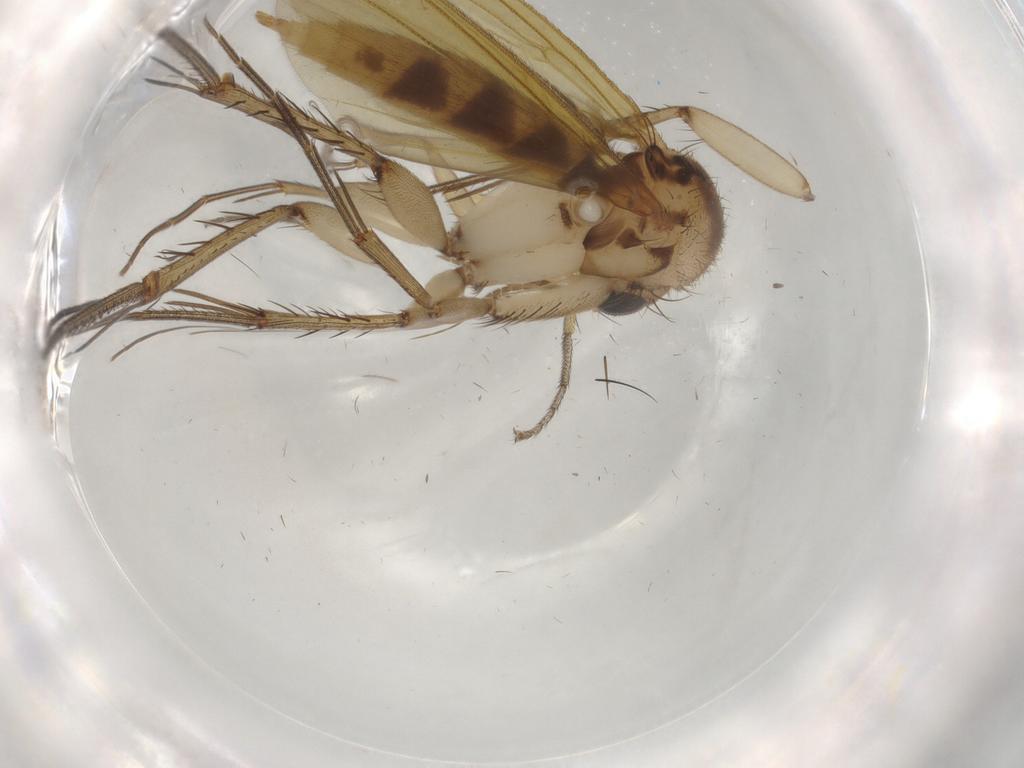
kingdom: Animalia
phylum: Arthropoda
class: Insecta
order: Diptera
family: Sphaeroceridae
